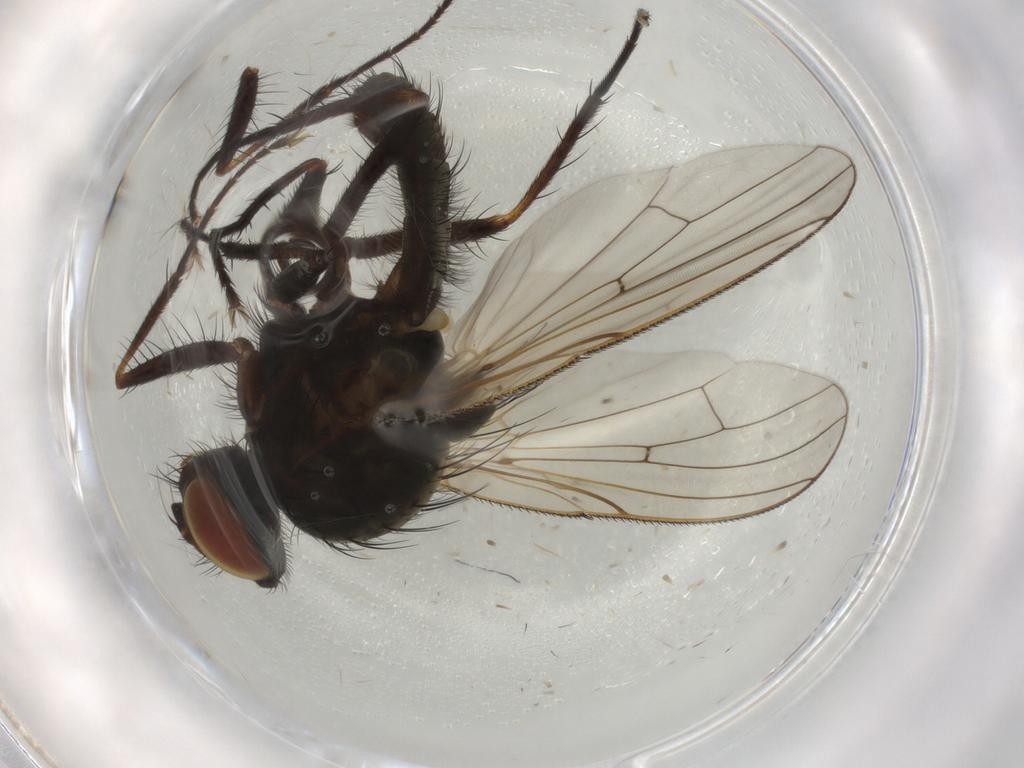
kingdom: Animalia
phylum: Arthropoda
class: Insecta
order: Diptera
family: Anthomyiidae
